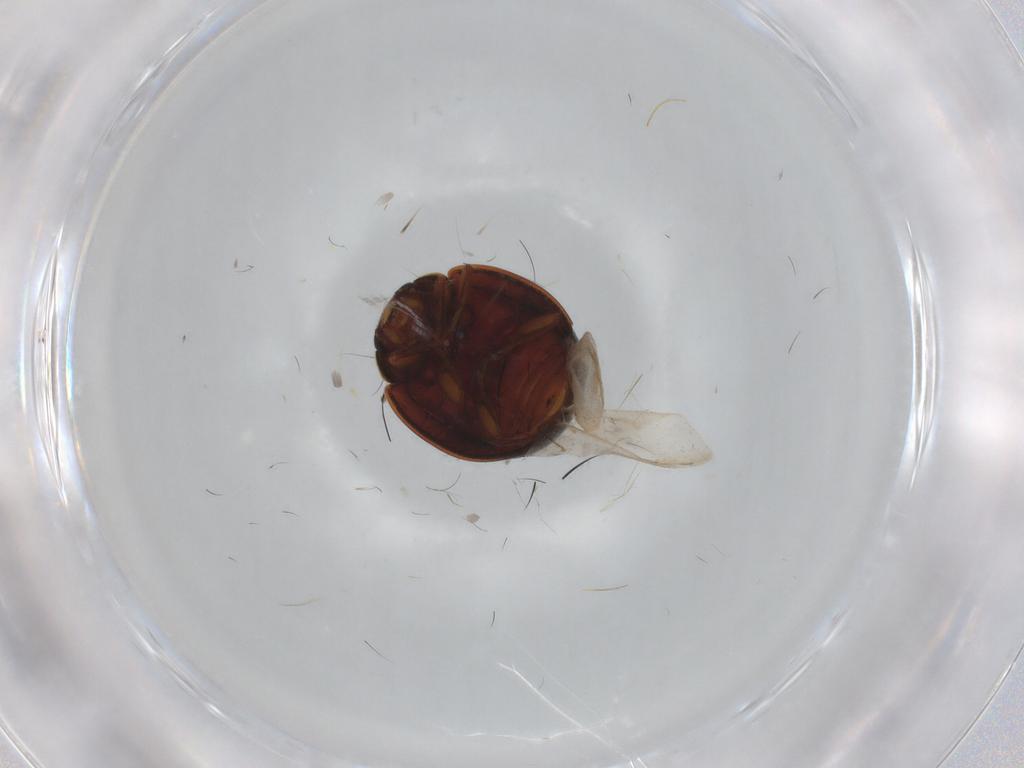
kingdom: Animalia
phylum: Arthropoda
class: Insecta
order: Coleoptera
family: Coccinellidae
